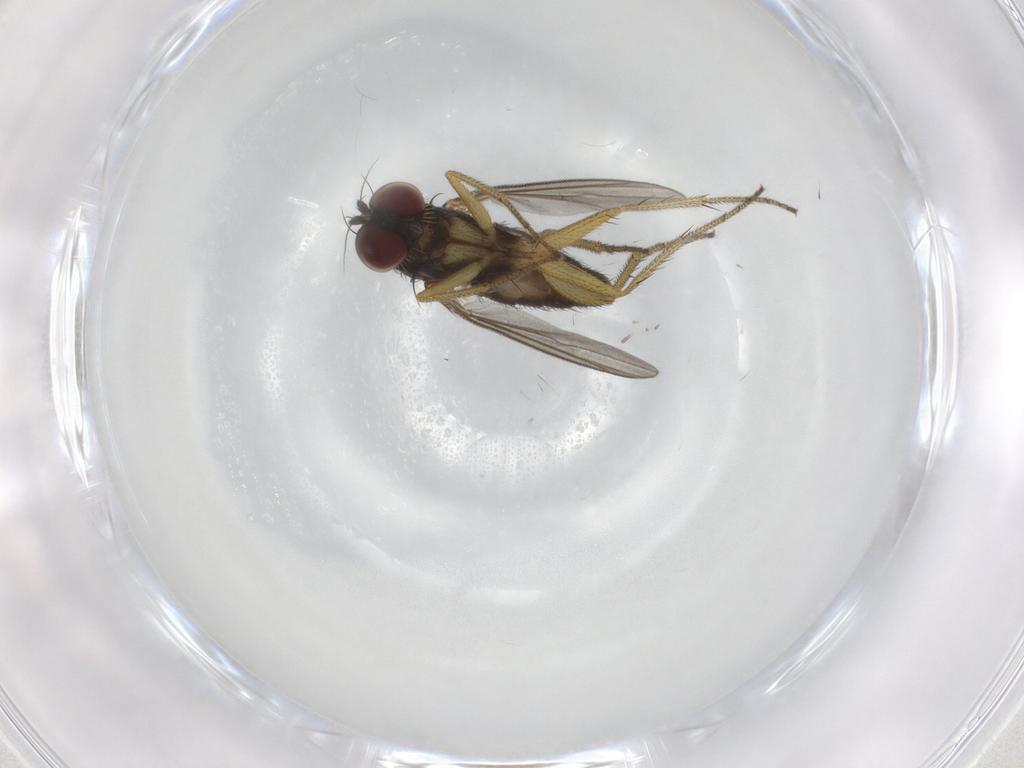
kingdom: Animalia
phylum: Arthropoda
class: Insecta
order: Diptera
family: Dolichopodidae
